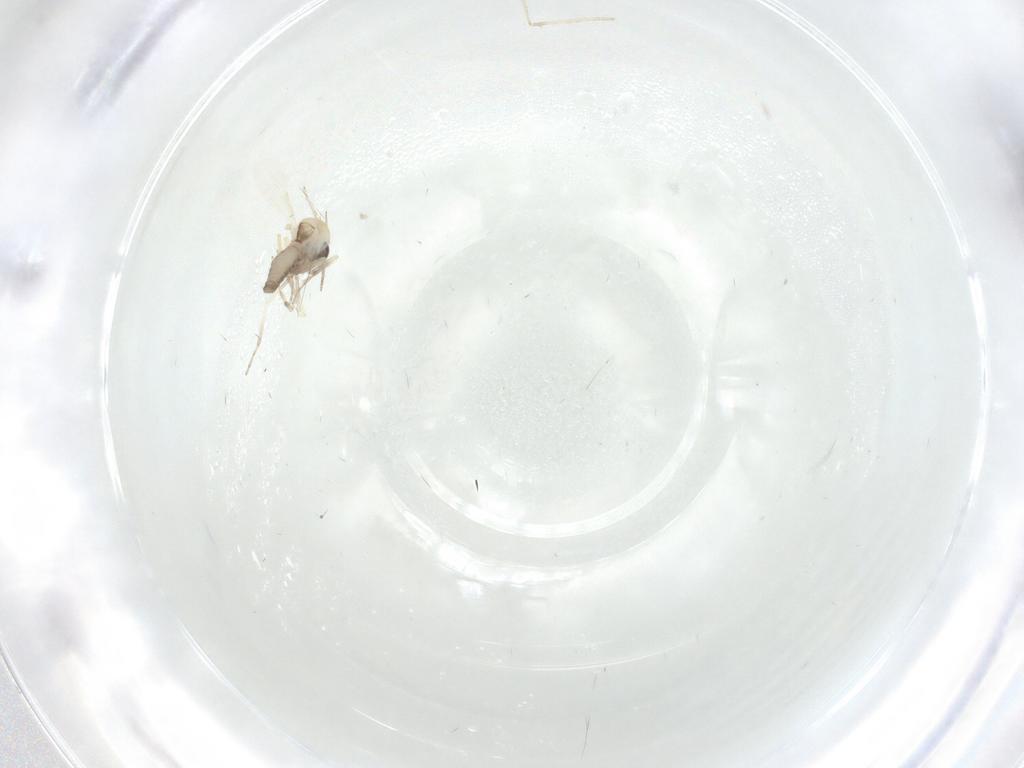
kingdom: Animalia
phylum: Arthropoda
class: Insecta
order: Diptera
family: Ceratopogonidae
